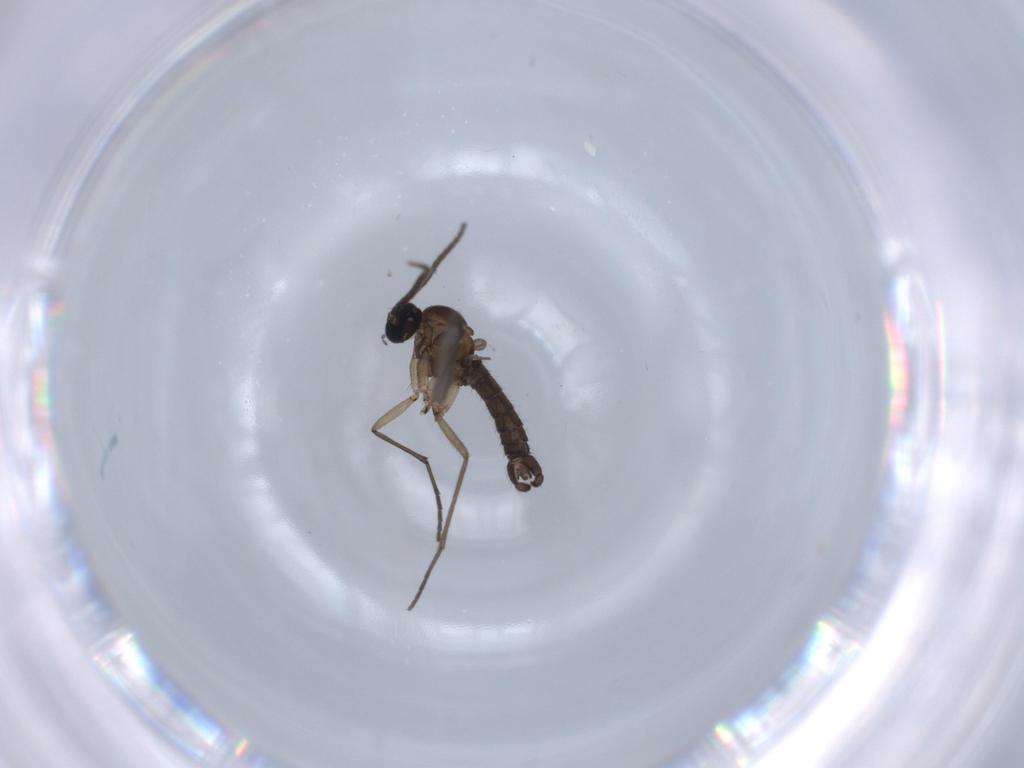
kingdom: Animalia
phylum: Arthropoda
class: Insecta
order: Diptera
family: Sciaridae
